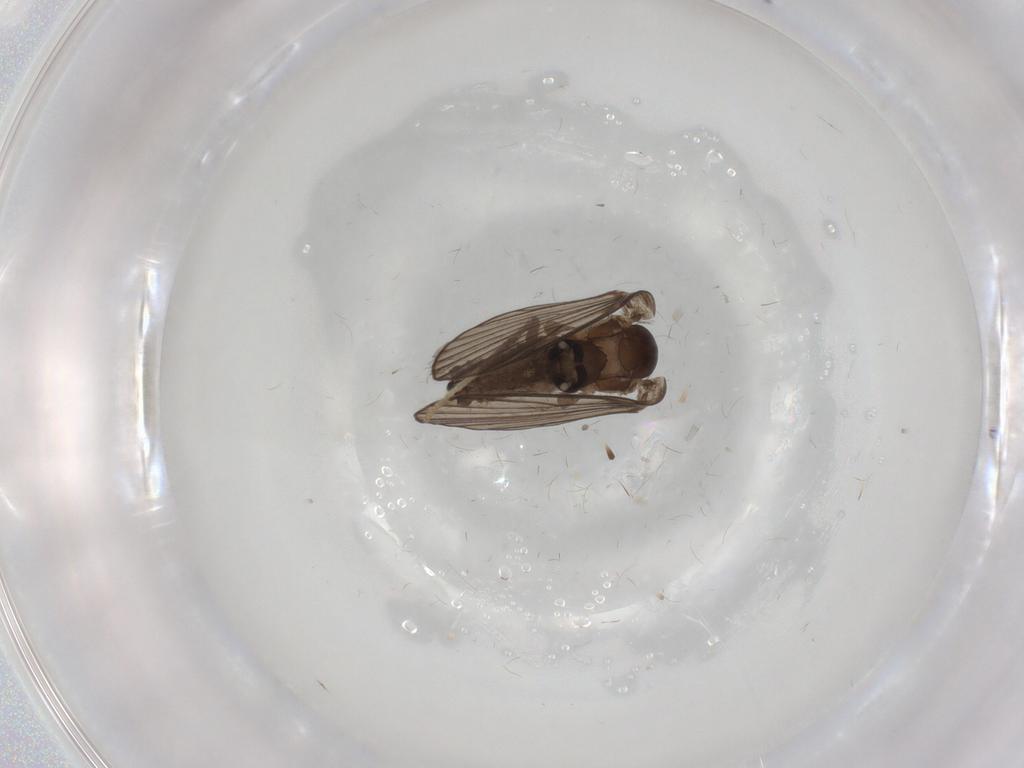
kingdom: Animalia
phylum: Arthropoda
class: Insecta
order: Diptera
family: Psychodidae
